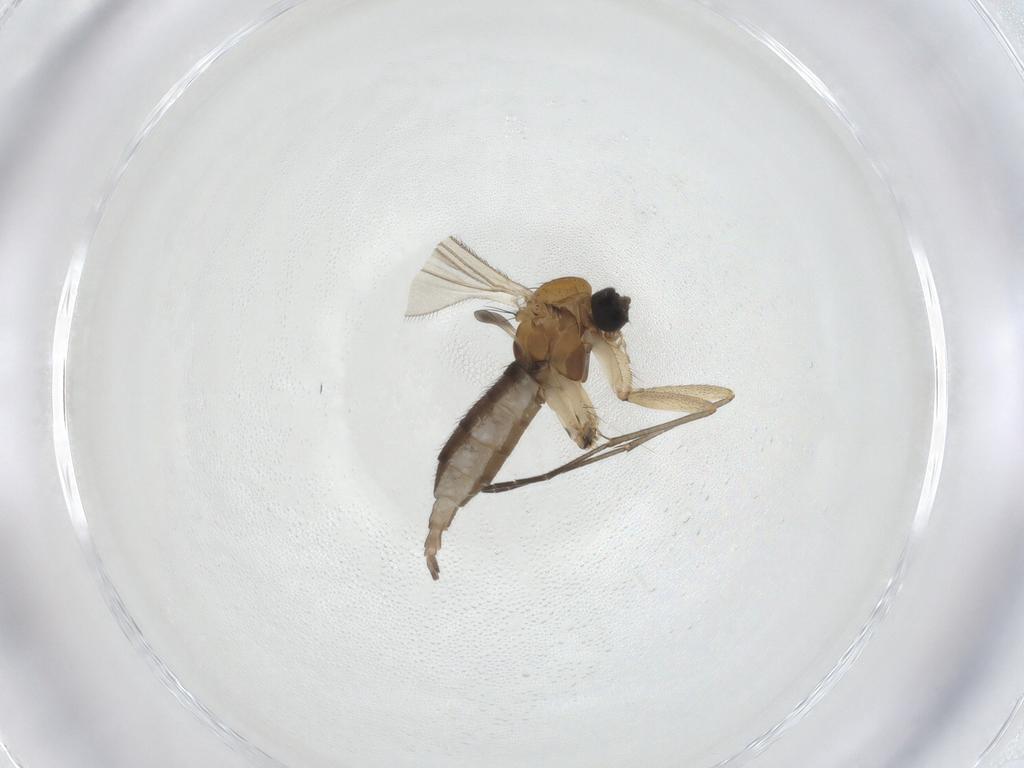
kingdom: Animalia
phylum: Arthropoda
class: Insecta
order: Diptera
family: Sciaridae
